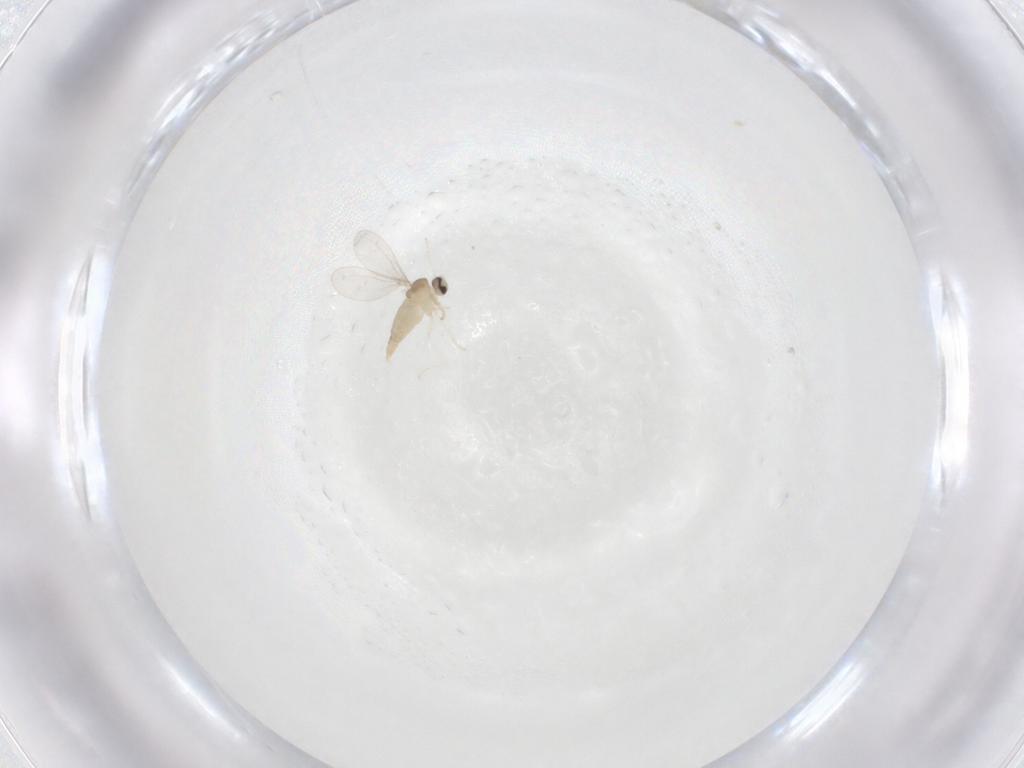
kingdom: Animalia
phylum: Arthropoda
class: Insecta
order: Diptera
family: Cecidomyiidae
